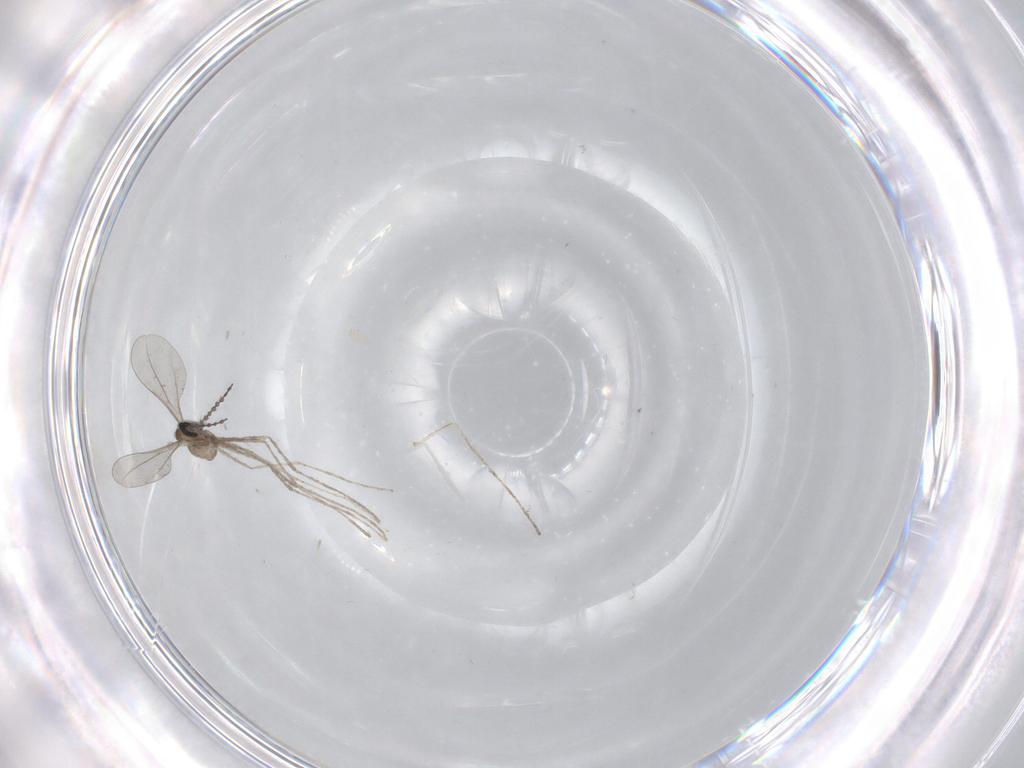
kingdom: Animalia
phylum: Arthropoda
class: Insecta
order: Diptera
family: Cecidomyiidae
